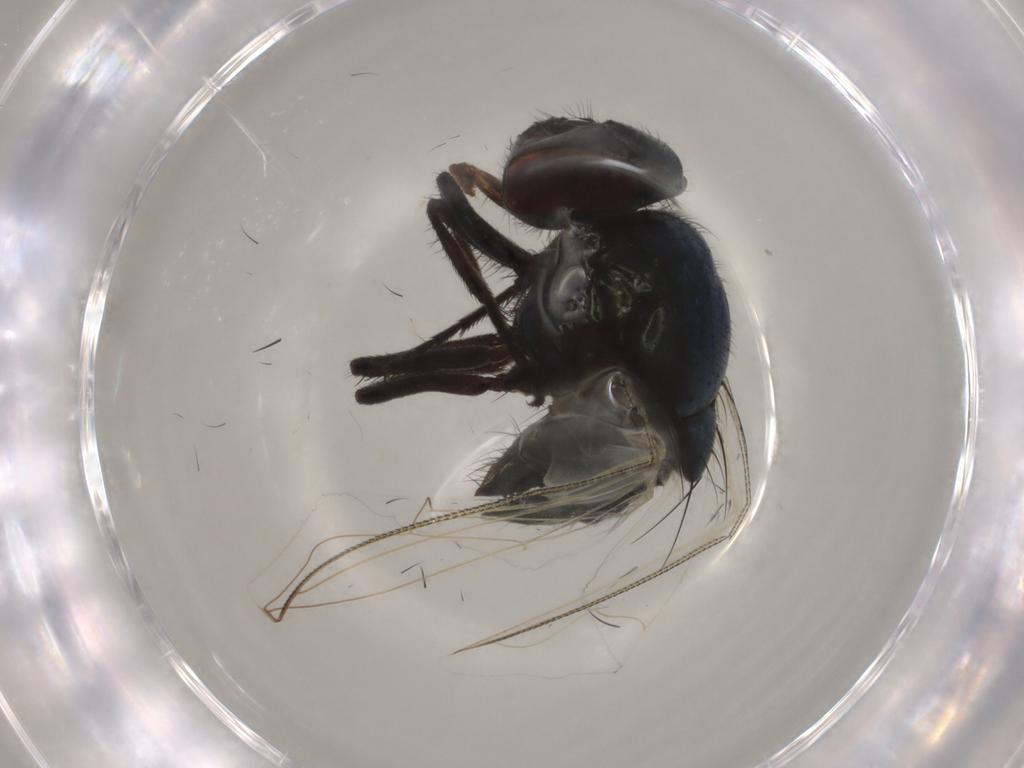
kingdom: Animalia
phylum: Arthropoda
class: Insecta
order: Diptera
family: Muscidae
